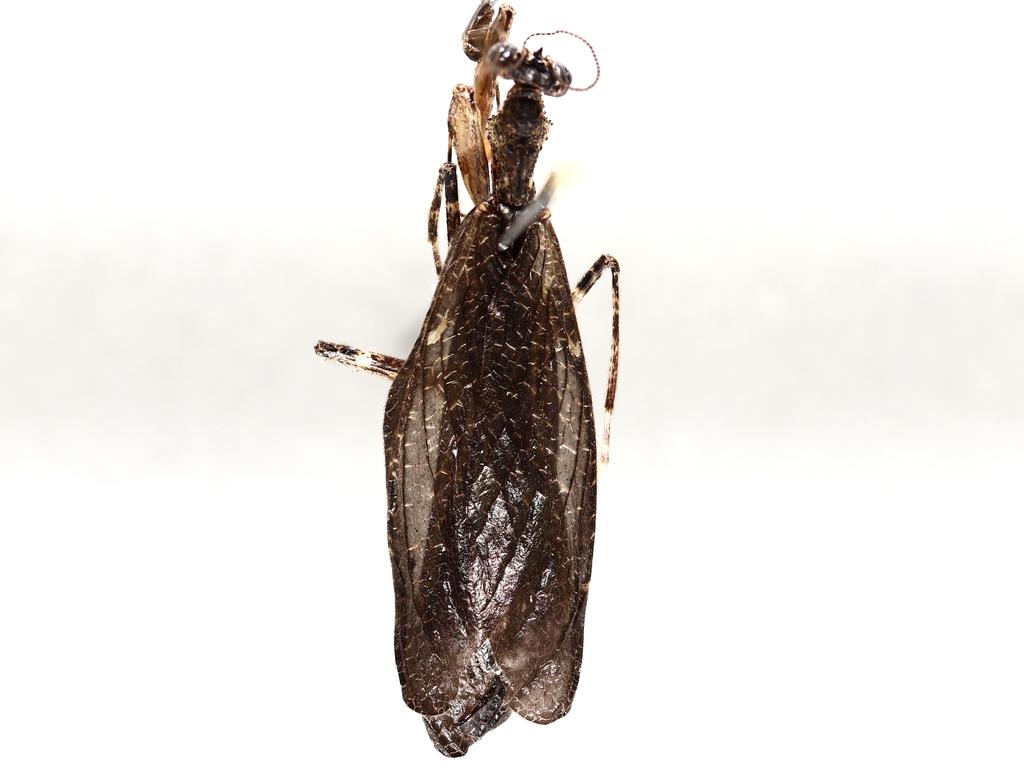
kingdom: Animalia
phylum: Arthropoda
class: Insecta
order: Diptera
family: Limoniidae
